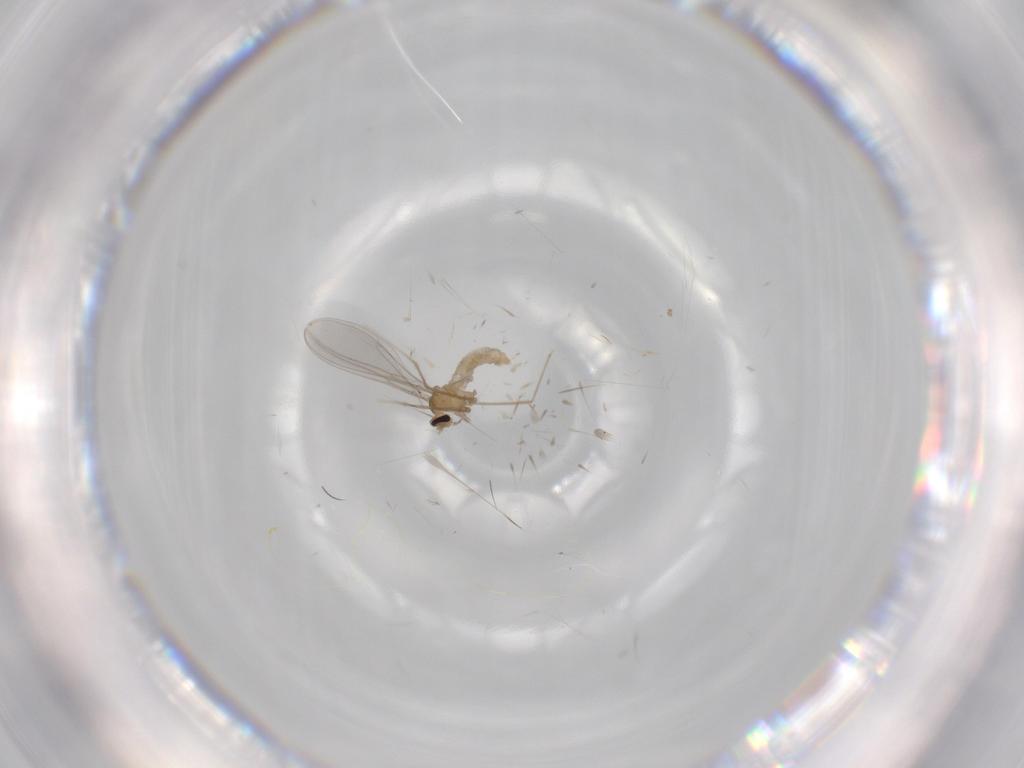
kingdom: Animalia
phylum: Arthropoda
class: Insecta
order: Diptera
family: Cecidomyiidae
